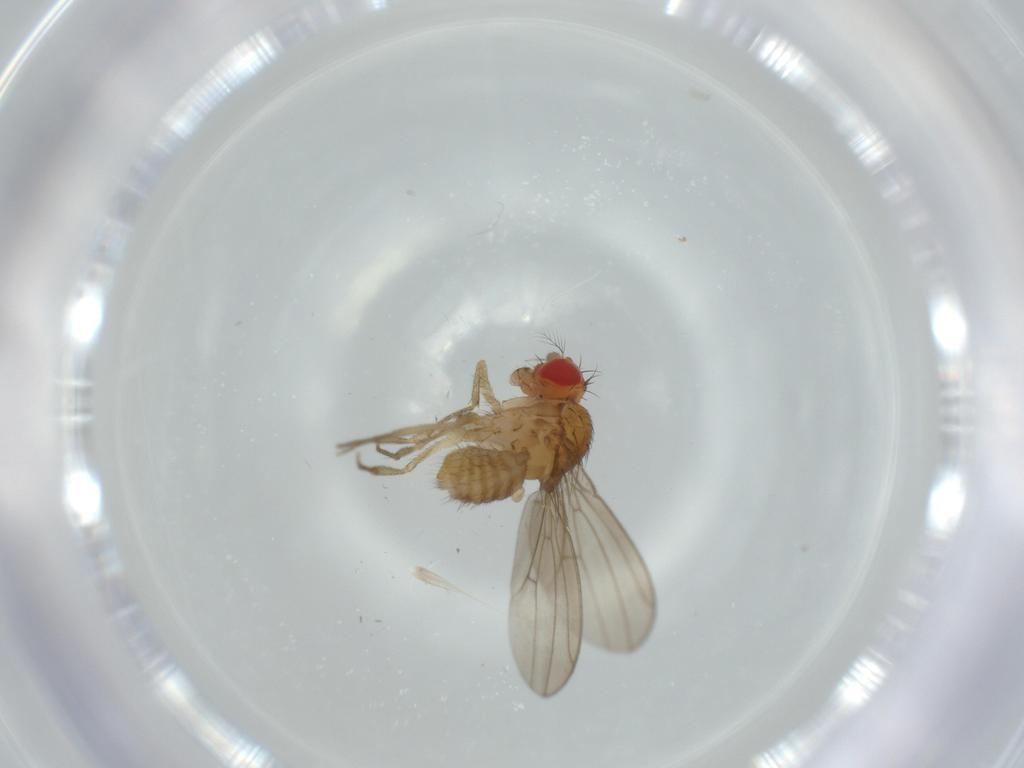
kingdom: Animalia
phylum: Arthropoda
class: Insecta
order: Diptera
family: Drosophilidae
